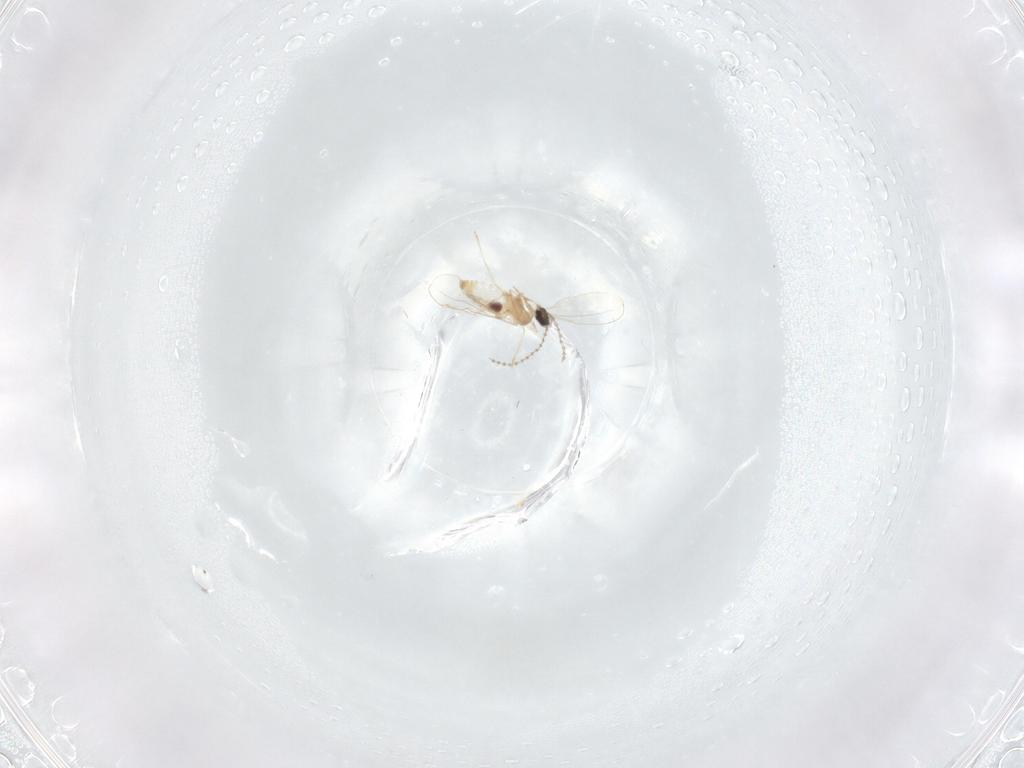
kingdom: Animalia
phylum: Arthropoda
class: Insecta
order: Diptera
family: Cecidomyiidae
